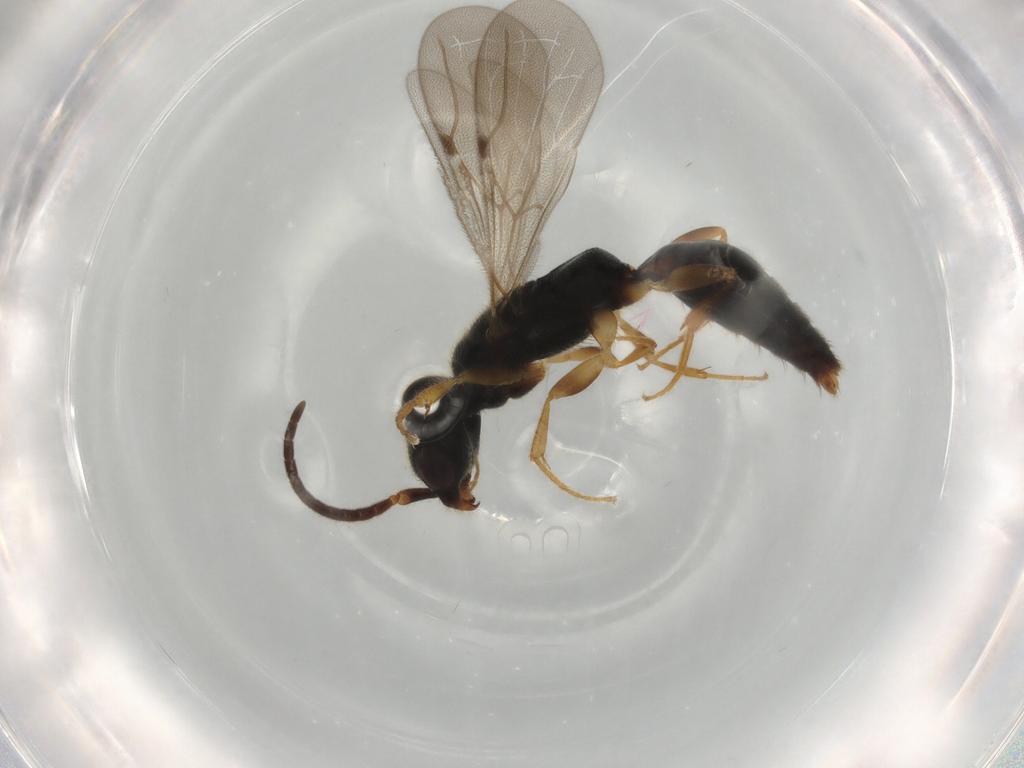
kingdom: Animalia
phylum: Arthropoda
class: Insecta
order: Hymenoptera
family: Bethylidae
